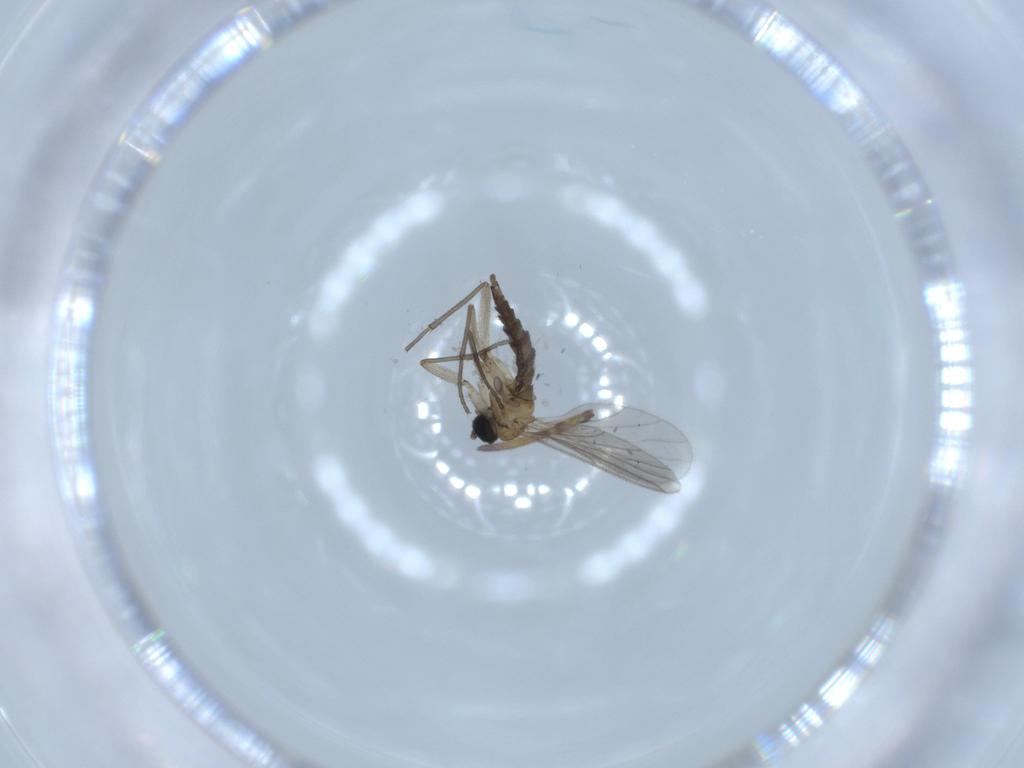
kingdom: Animalia
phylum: Arthropoda
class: Insecta
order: Diptera
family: Sciaridae
